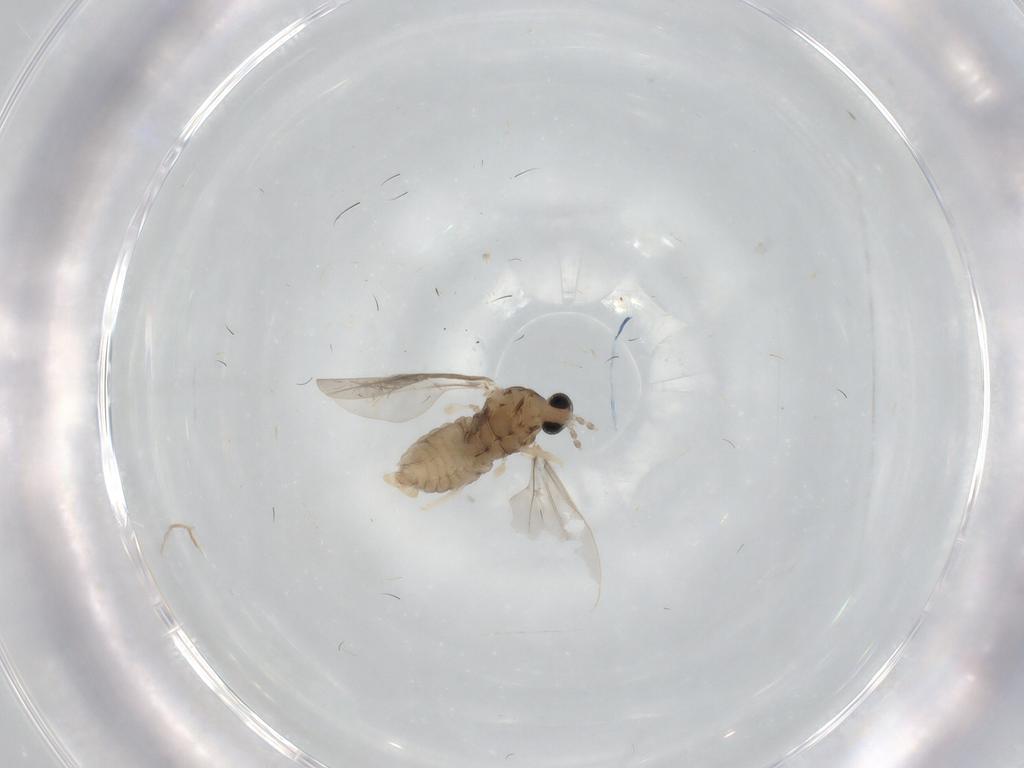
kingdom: Animalia
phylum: Arthropoda
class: Insecta
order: Diptera
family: Cecidomyiidae
